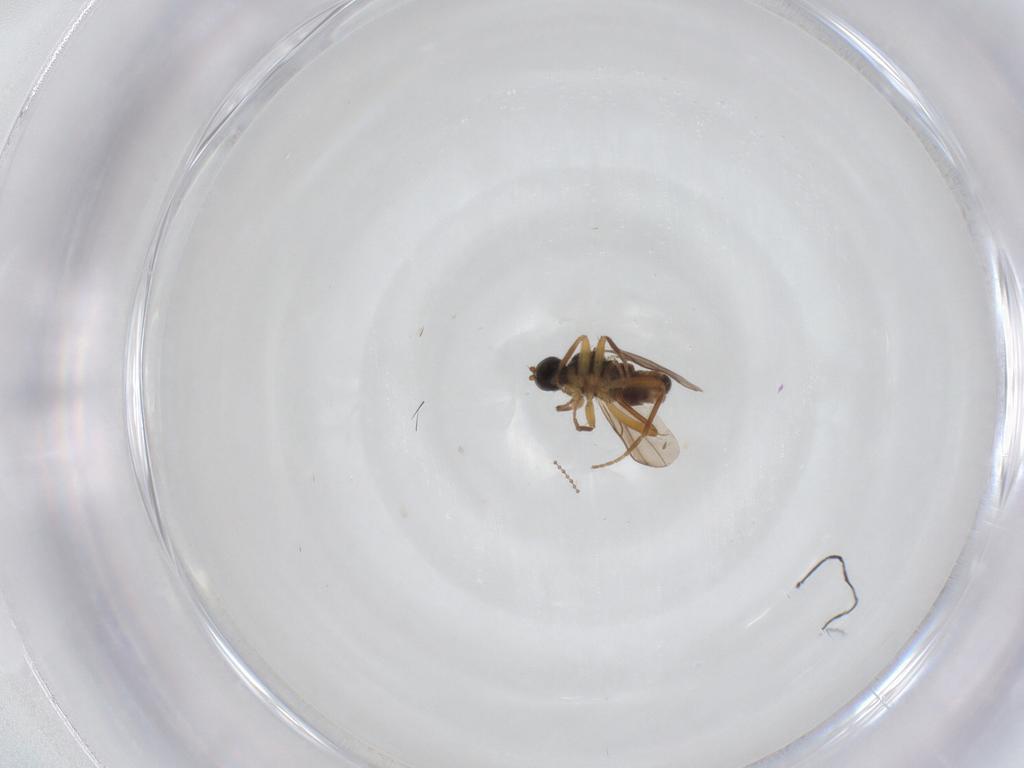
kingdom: Animalia
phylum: Arthropoda
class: Insecta
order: Diptera
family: Hybotidae
